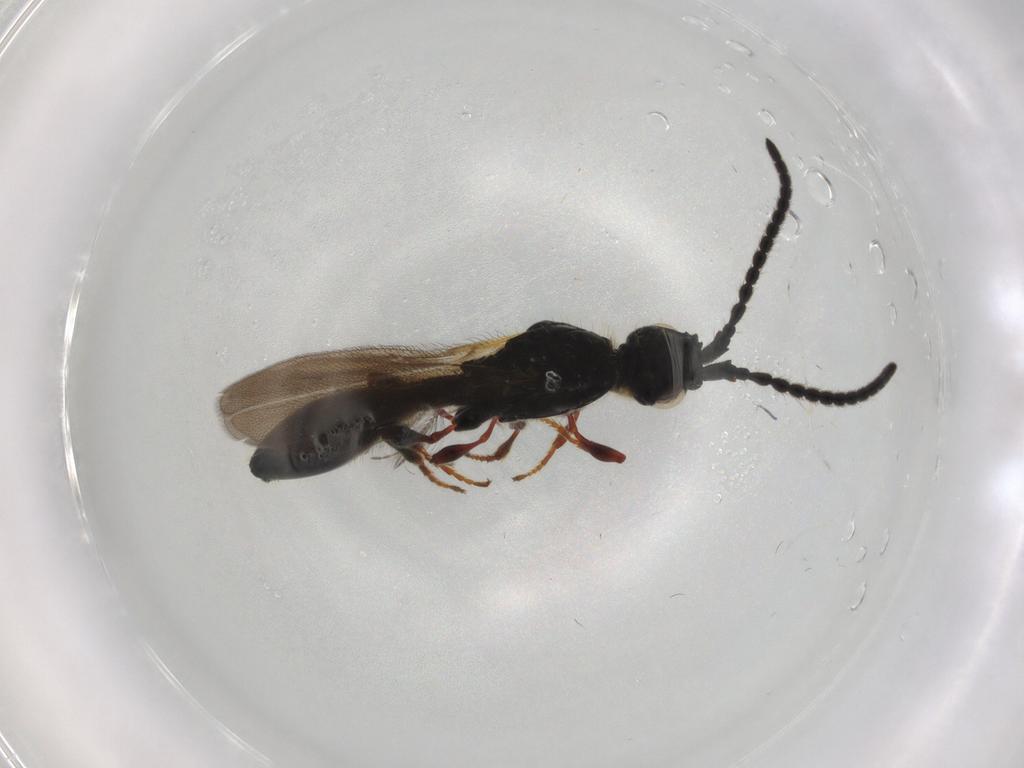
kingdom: Animalia
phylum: Arthropoda
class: Insecta
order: Hymenoptera
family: Diapriidae
